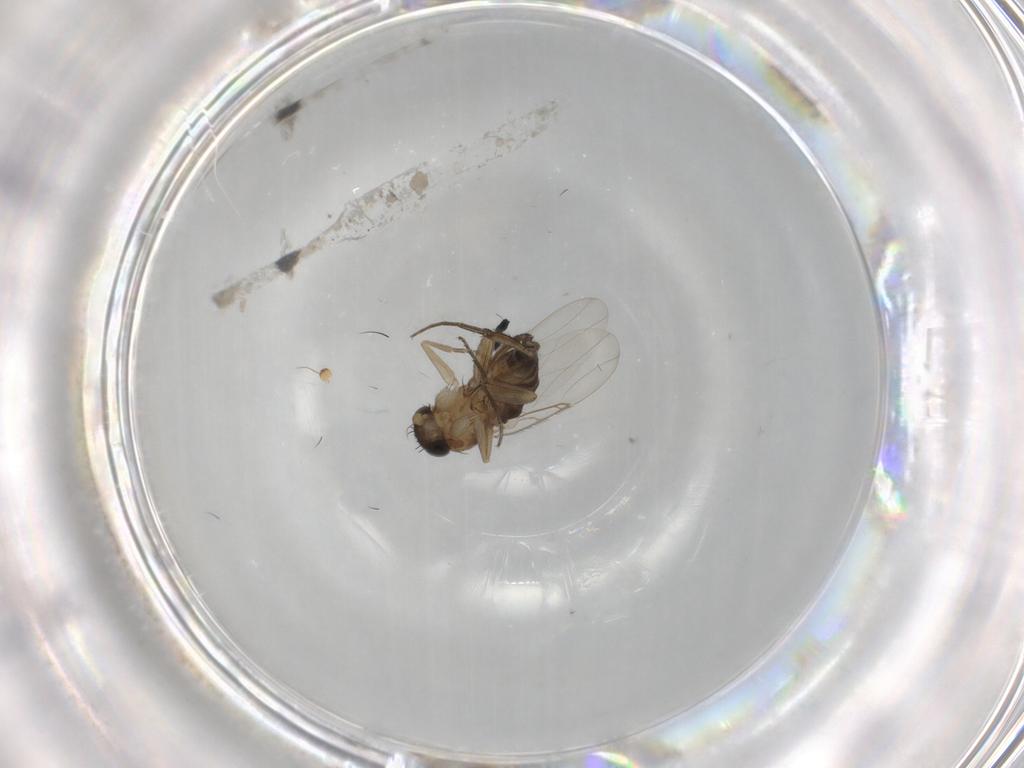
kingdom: Animalia
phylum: Arthropoda
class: Insecta
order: Diptera
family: Phoridae
